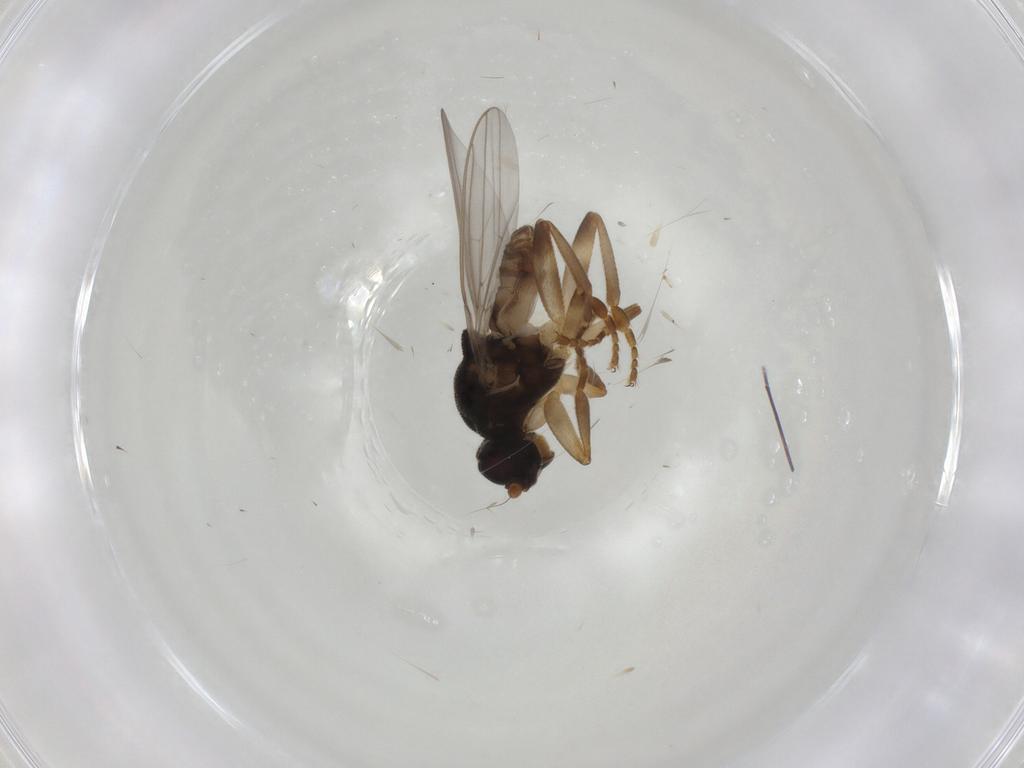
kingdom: Animalia
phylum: Arthropoda
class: Insecta
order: Diptera
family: Sphaeroceridae
